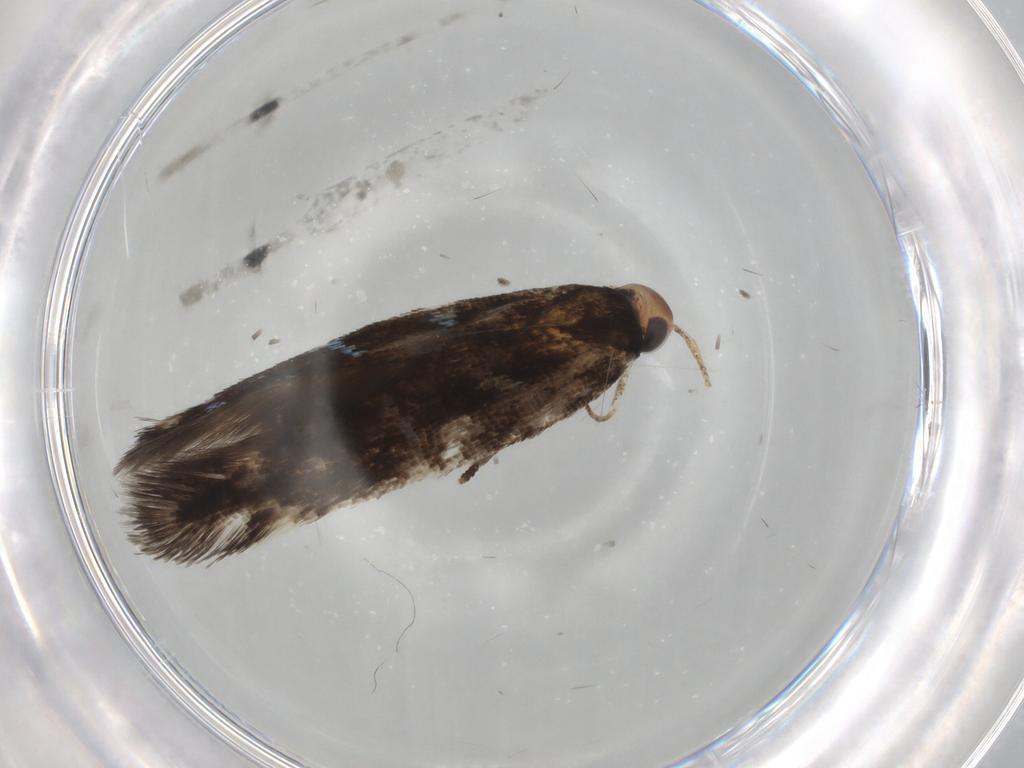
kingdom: Animalia
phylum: Arthropoda
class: Insecta
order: Lepidoptera
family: Cosmopterigidae
